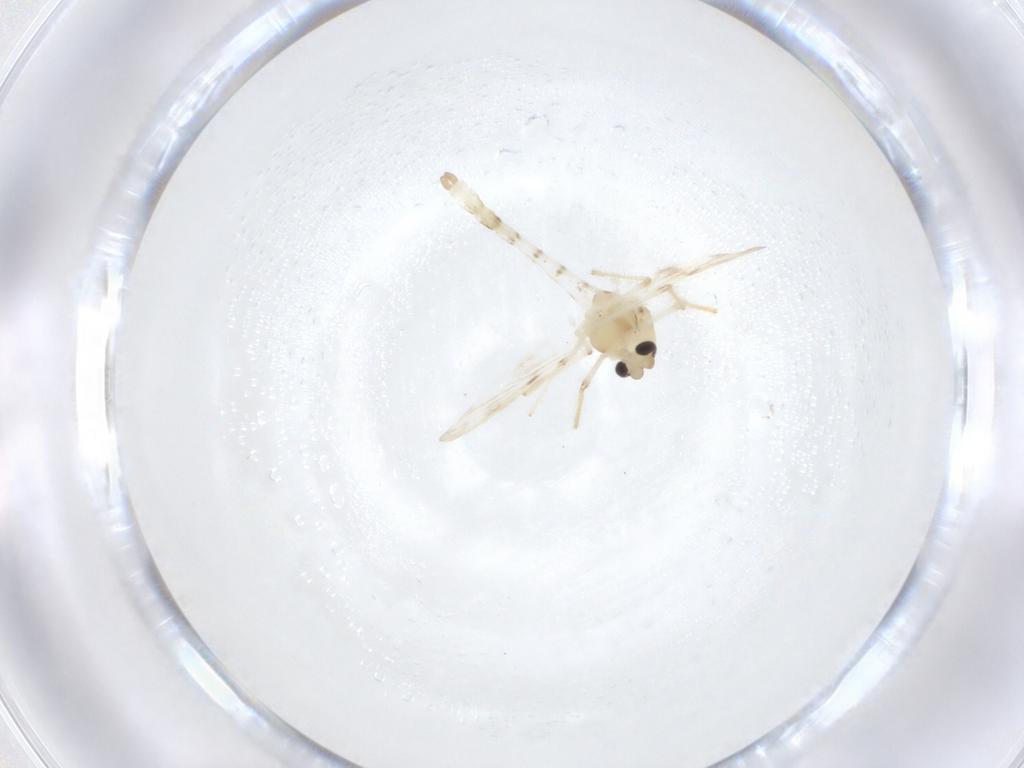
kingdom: Animalia
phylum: Arthropoda
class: Insecta
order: Diptera
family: Chironomidae
